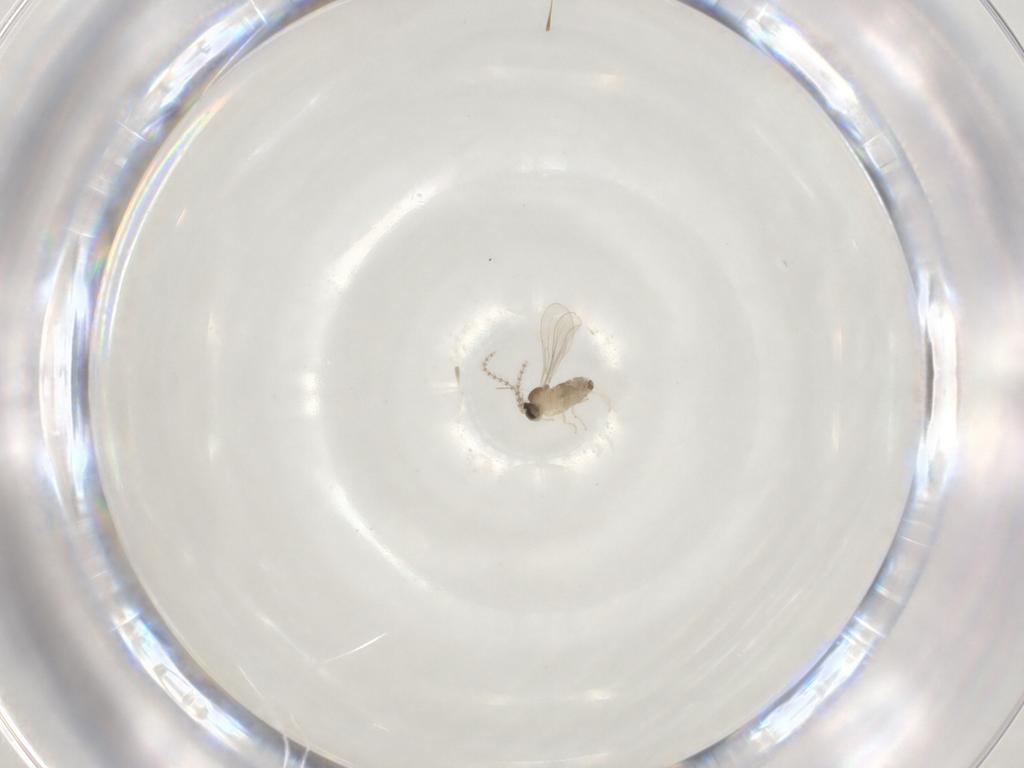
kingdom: Animalia
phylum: Arthropoda
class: Insecta
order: Diptera
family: Cecidomyiidae
